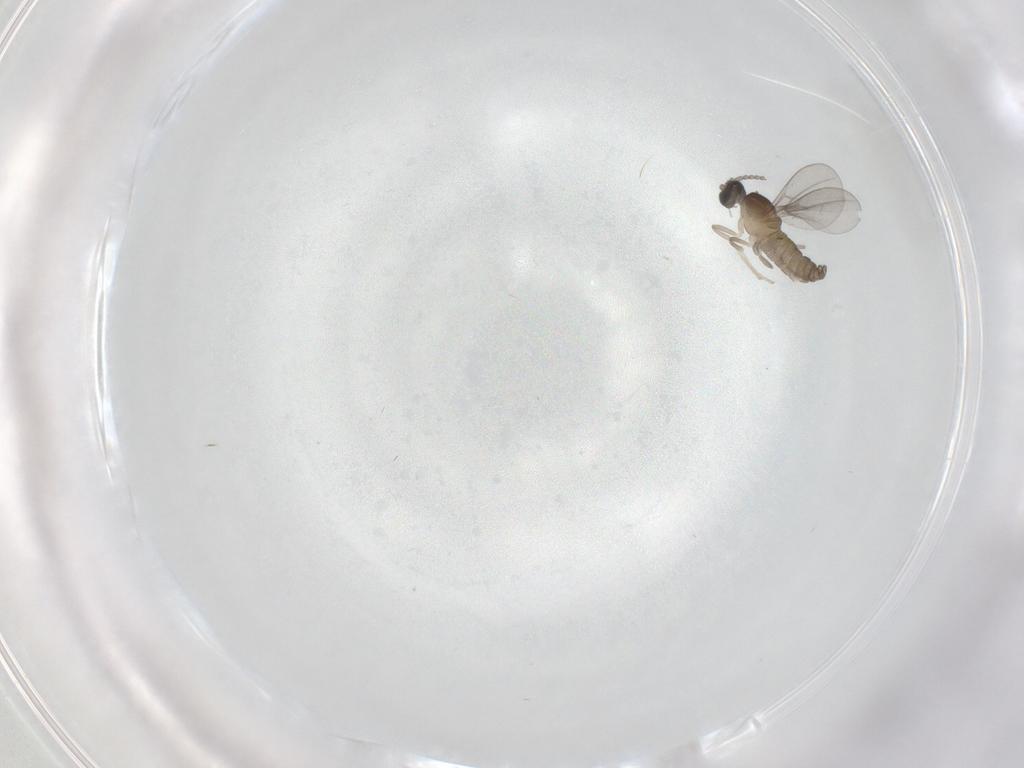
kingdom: Animalia
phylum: Arthropoda
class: Insecta
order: Diptera
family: Cecidomyiidae
